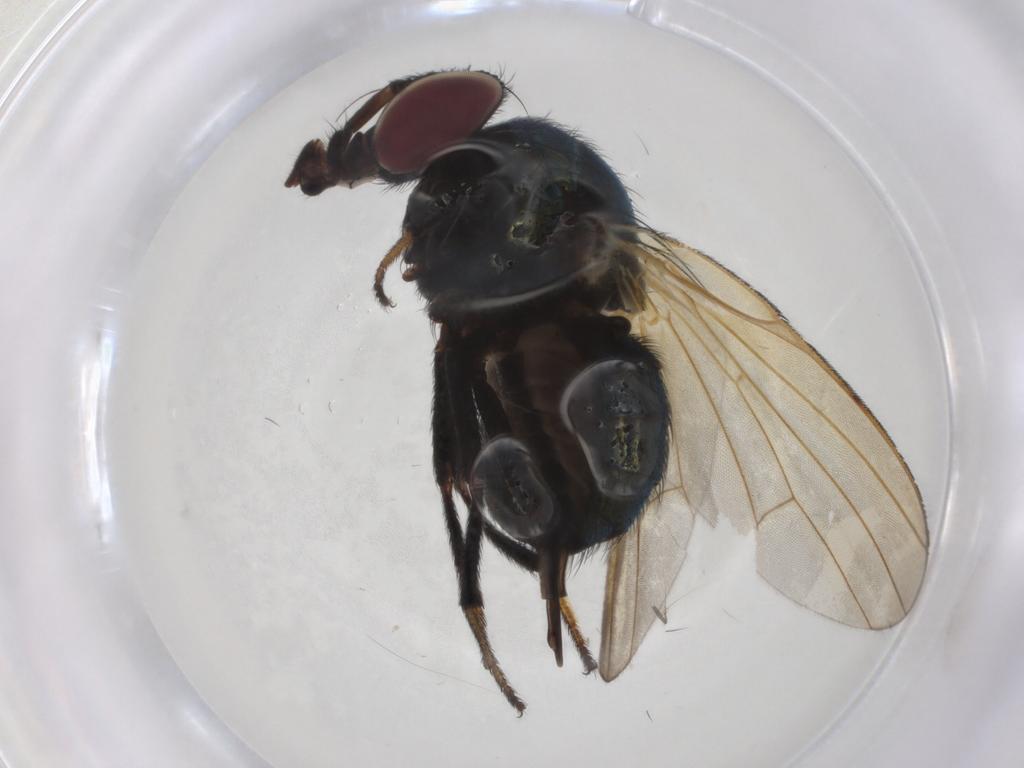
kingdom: Animalia
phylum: Arthropoda
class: Insecta
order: Diptera
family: Lonchaeidae
